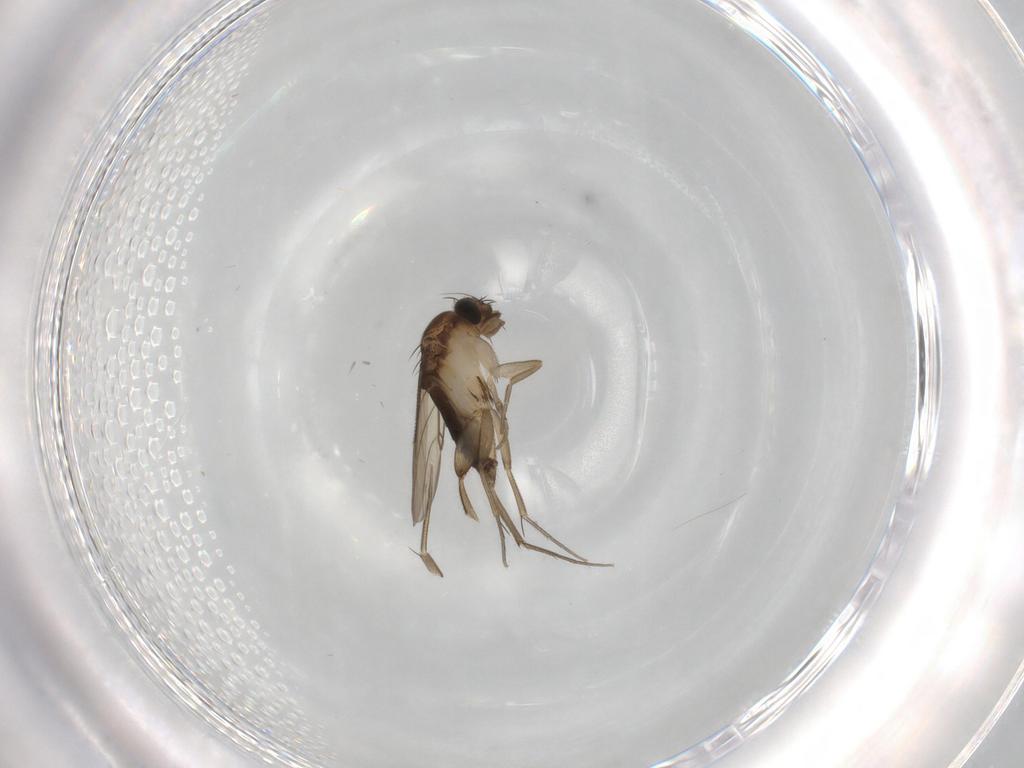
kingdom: Animalia
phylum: Arthropoda
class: Insecta
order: Diptera
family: Phoridae
